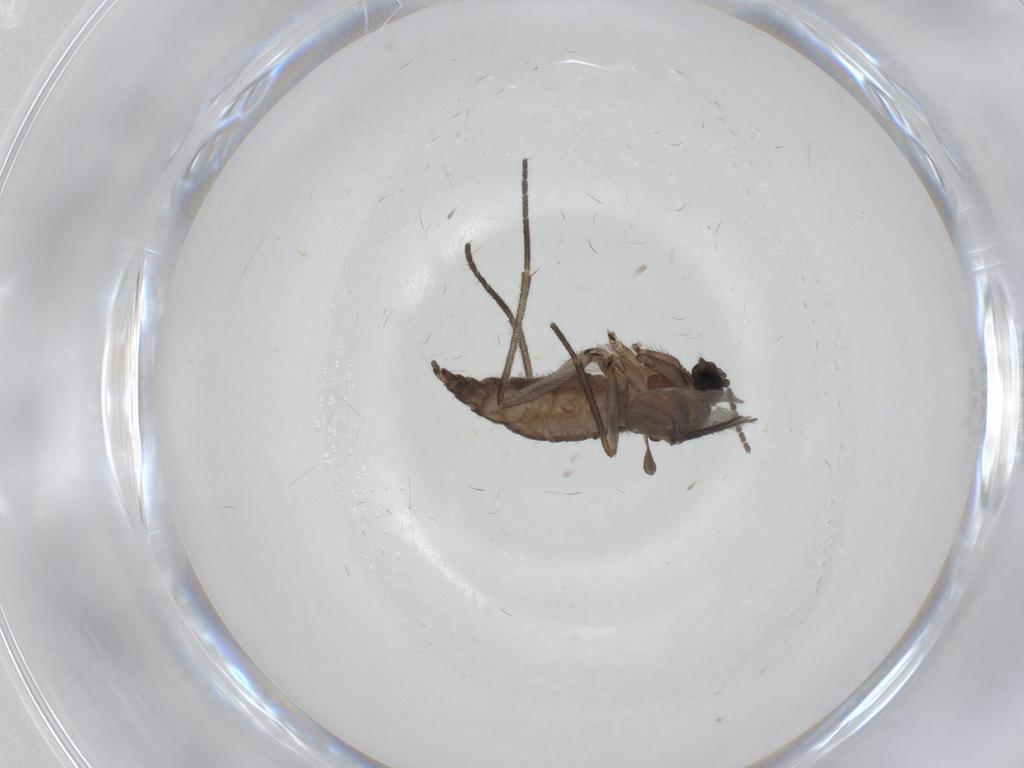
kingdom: Animalia
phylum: Arthropoda
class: Insecta
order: Diptera
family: Sciaridae
